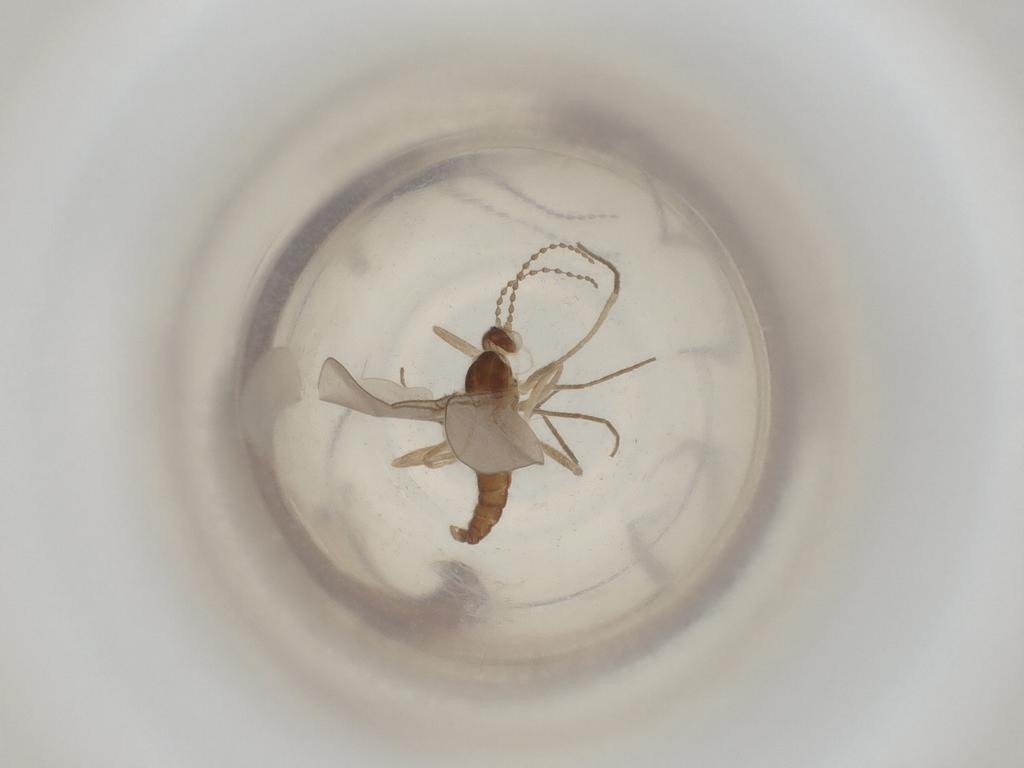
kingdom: Animalia
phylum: Arthropoda
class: Insecta
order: Diptera
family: Cecidomyiidae
